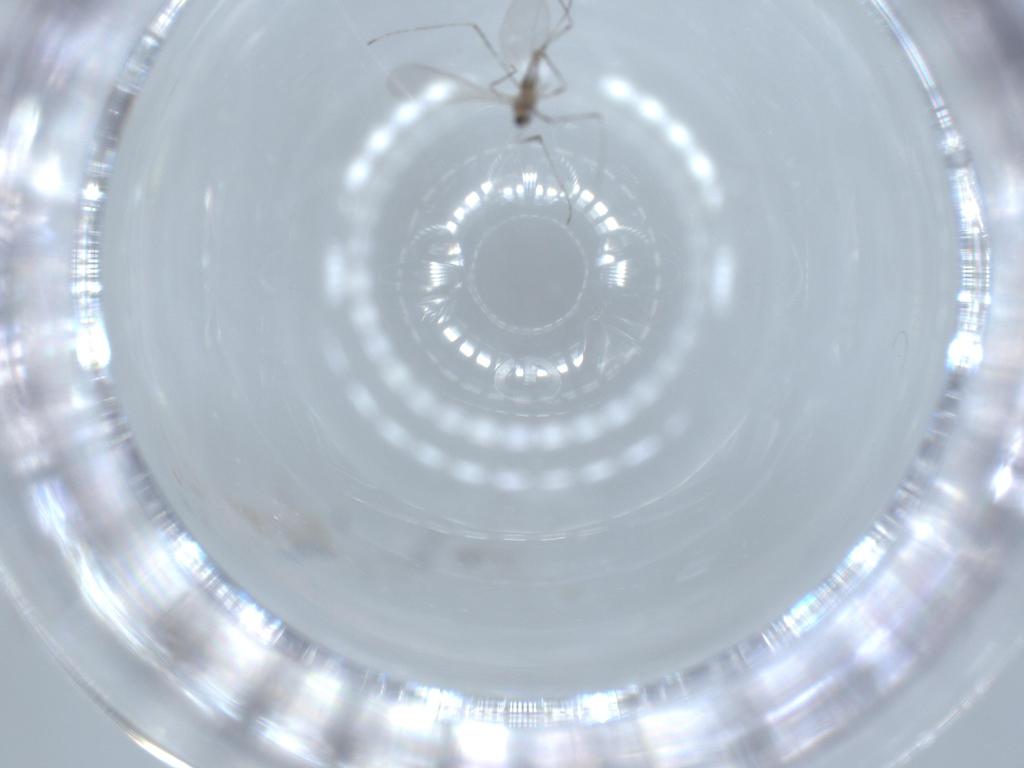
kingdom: Animalia
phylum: Arthropoda
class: Insecta
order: Diptera
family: Cecidomyiidae
